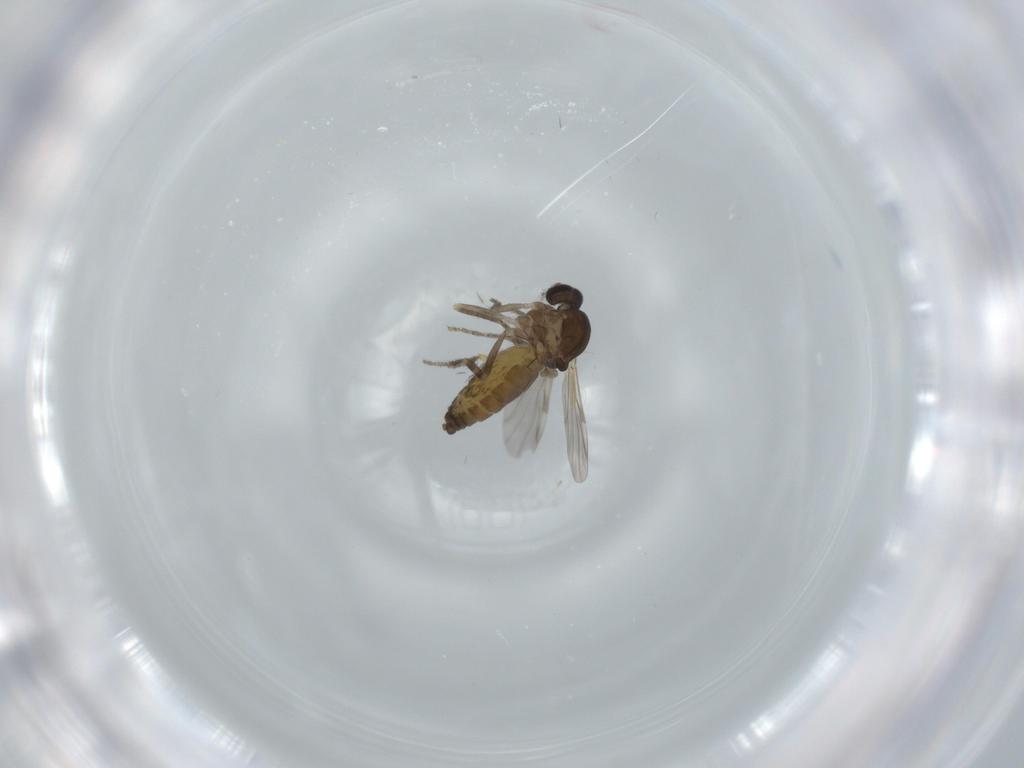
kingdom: Animalia
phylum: Arthropoda
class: Insecta
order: Diptera
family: Ceratopogonidae
